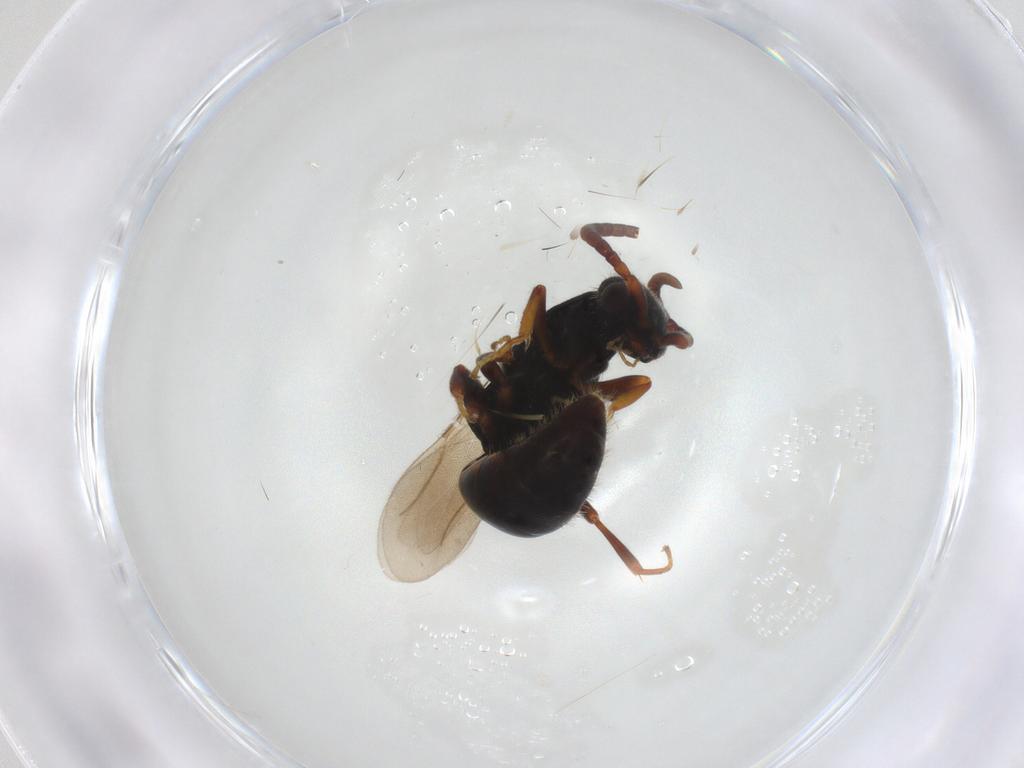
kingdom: Animalia
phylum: Arthropoda
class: Insecta
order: Hymenoptera
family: Bethylidae
